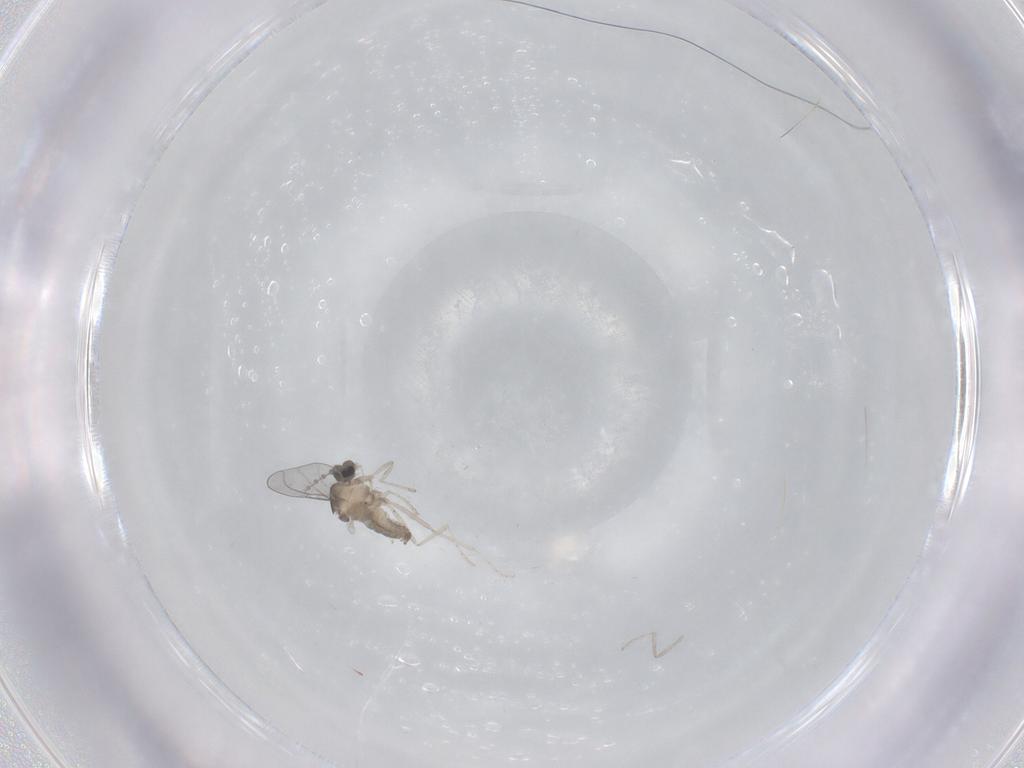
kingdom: Animalia
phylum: Arthropoda
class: Insecta
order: Diptera
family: Cecidomyiidae
